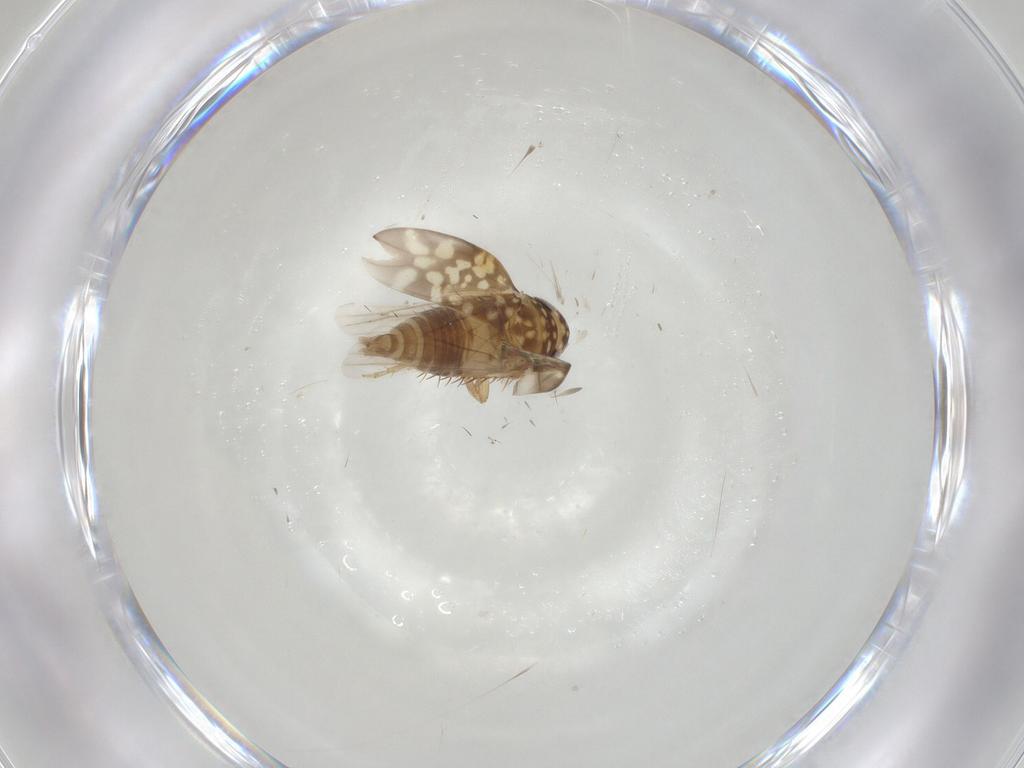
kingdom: Animalia
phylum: Arthropoda
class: Insecta
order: Hemiptera
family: Cicadellidae
